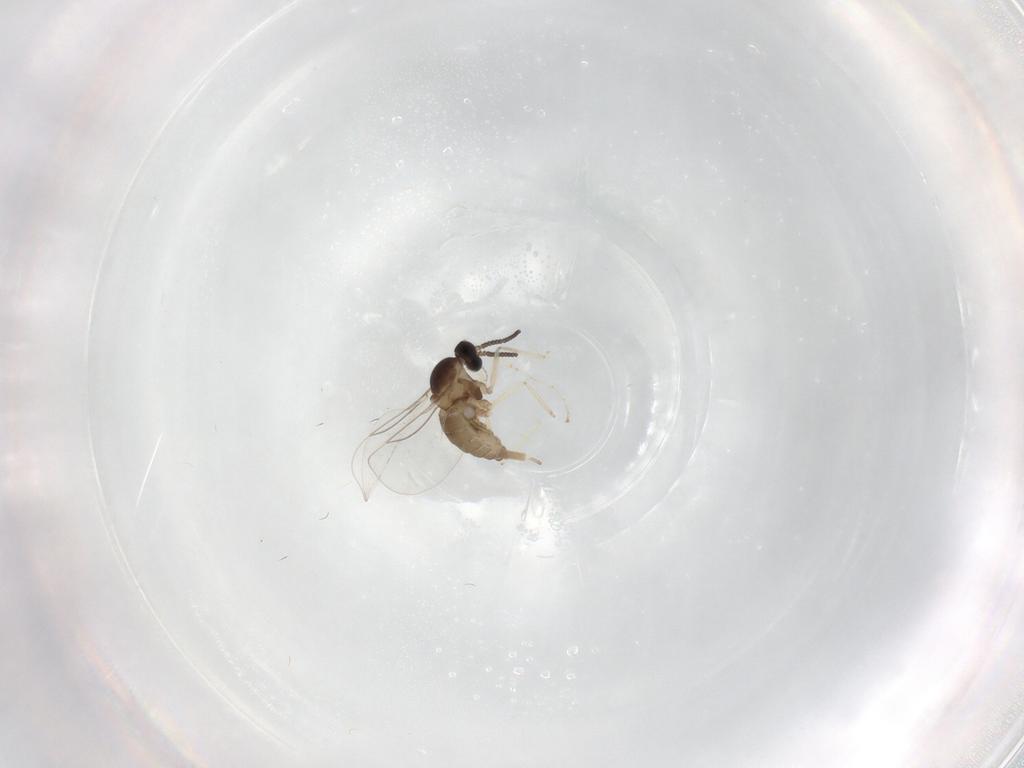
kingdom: Animalia
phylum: Arthropoda
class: Insecta
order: Diptera
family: Cecidomyiidae
